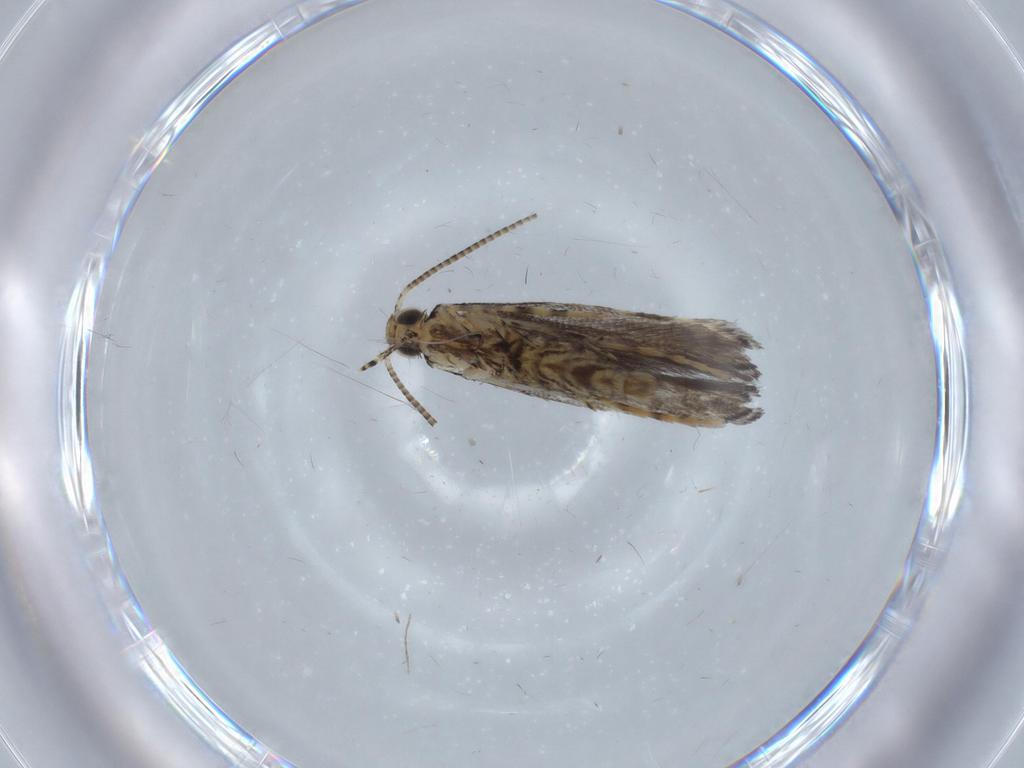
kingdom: Animalia
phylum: Arthropoda
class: Insecta
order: Lepidoptera
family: Gracillariidae
